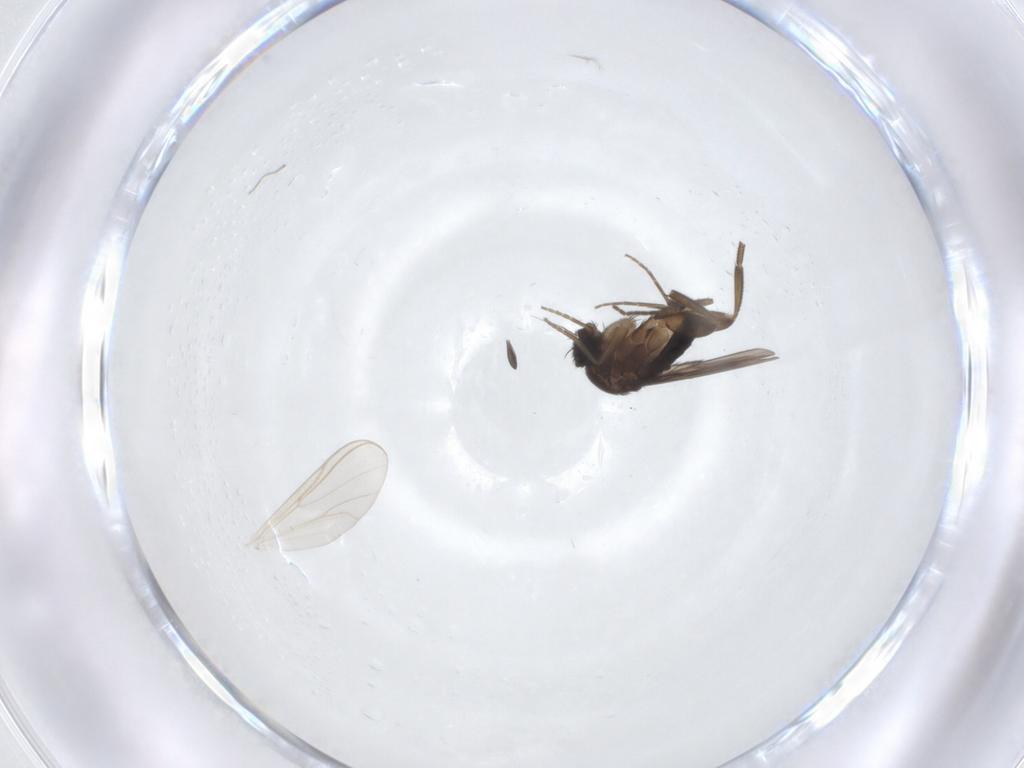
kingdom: Animalia
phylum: Arthropoda
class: Insecta
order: Diptera
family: Phoridae
